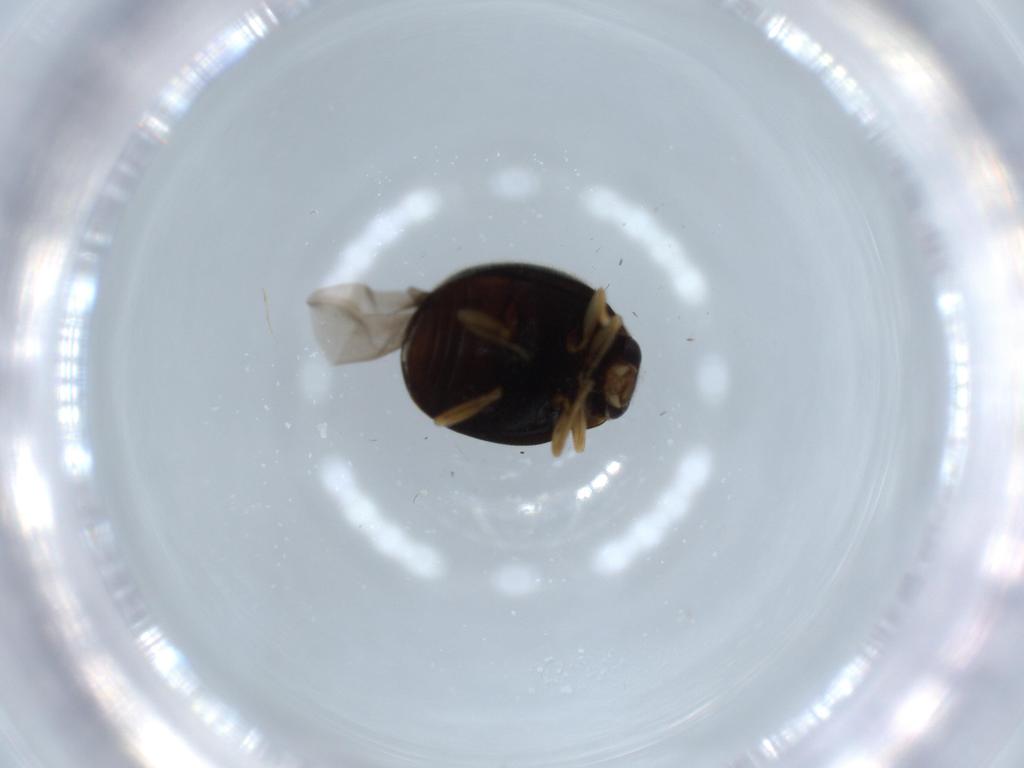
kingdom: Animalia
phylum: Arthropoda
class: Insecta
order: Coleoptera
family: Coccinellidae
